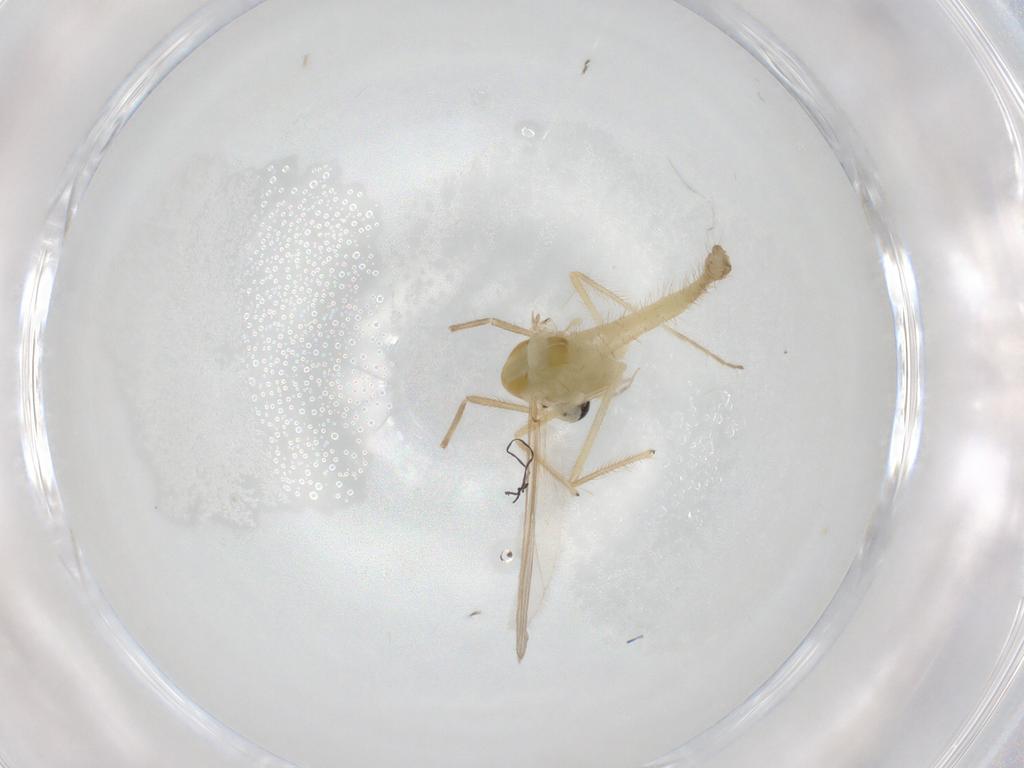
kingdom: Animalia
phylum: Arthropoda
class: Insecta
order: Diptera
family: Chironomidae
